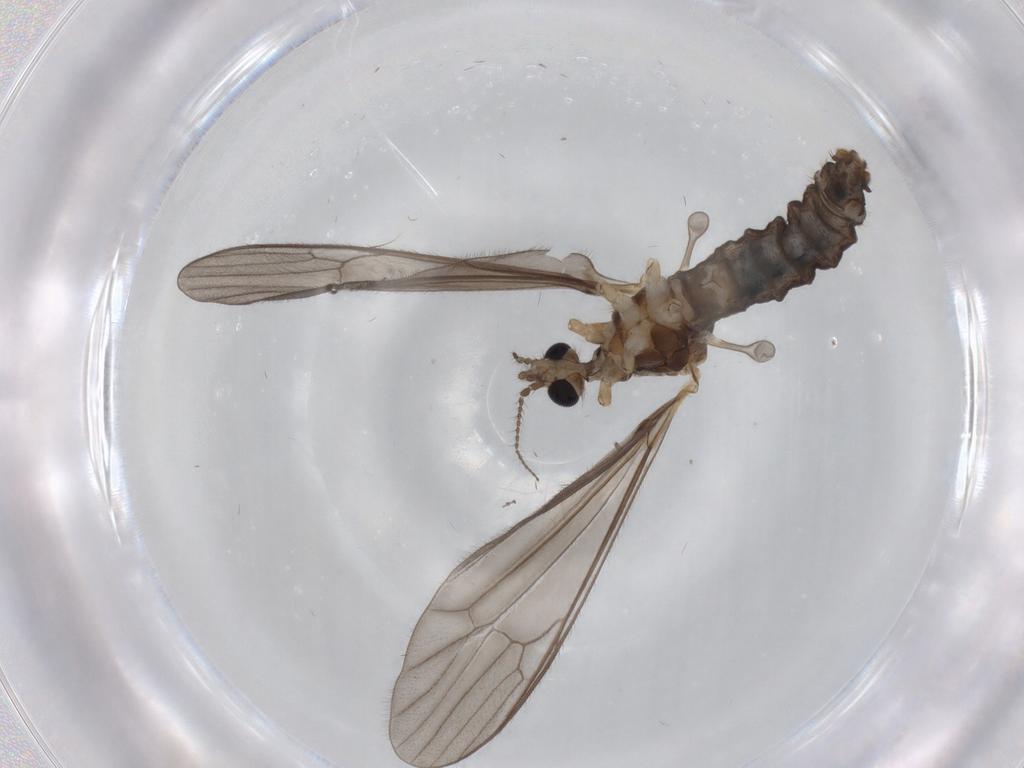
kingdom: Animalia
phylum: Arthropoda
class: Insecta
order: Diptera
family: Limoniidae
